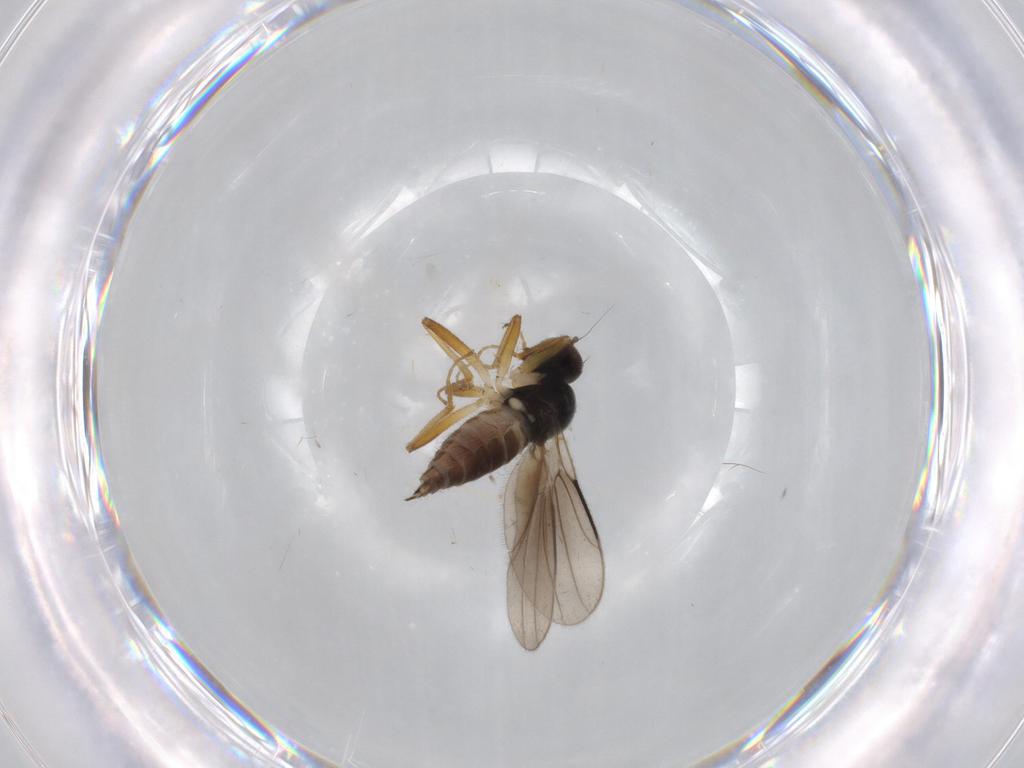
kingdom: Animalia
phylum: Arthropoda
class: Insecta
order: Diptera
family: Hybotidae
